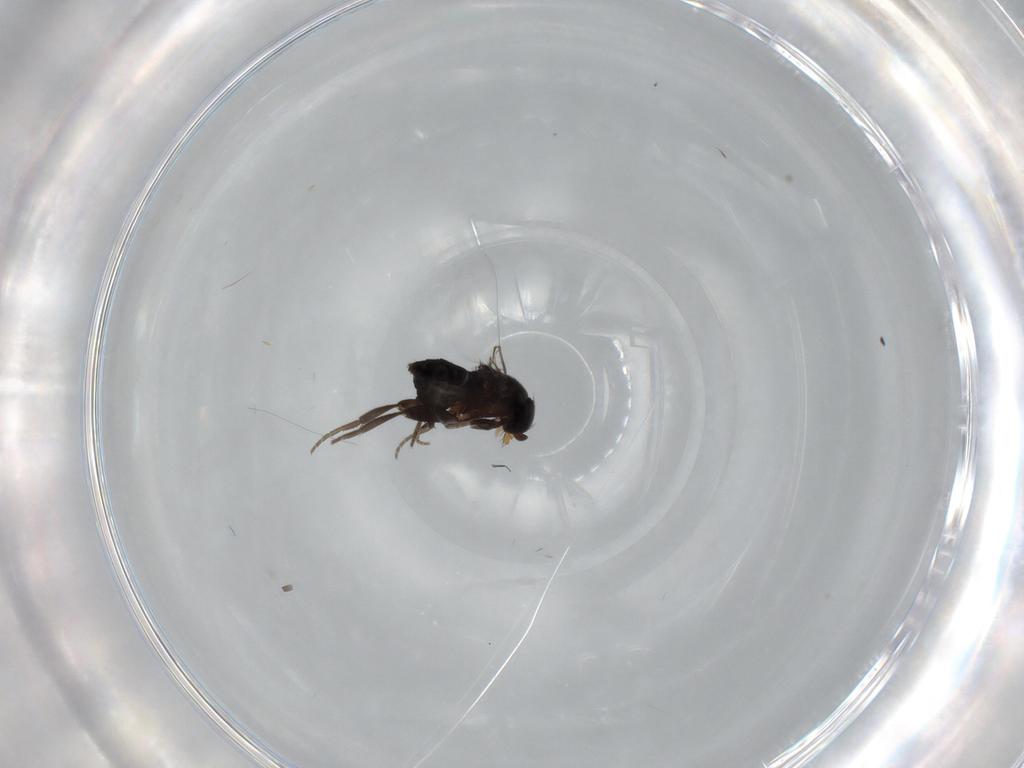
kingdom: Animalia
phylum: Arthropoda
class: Insecta
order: Diptera
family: Phoridae
